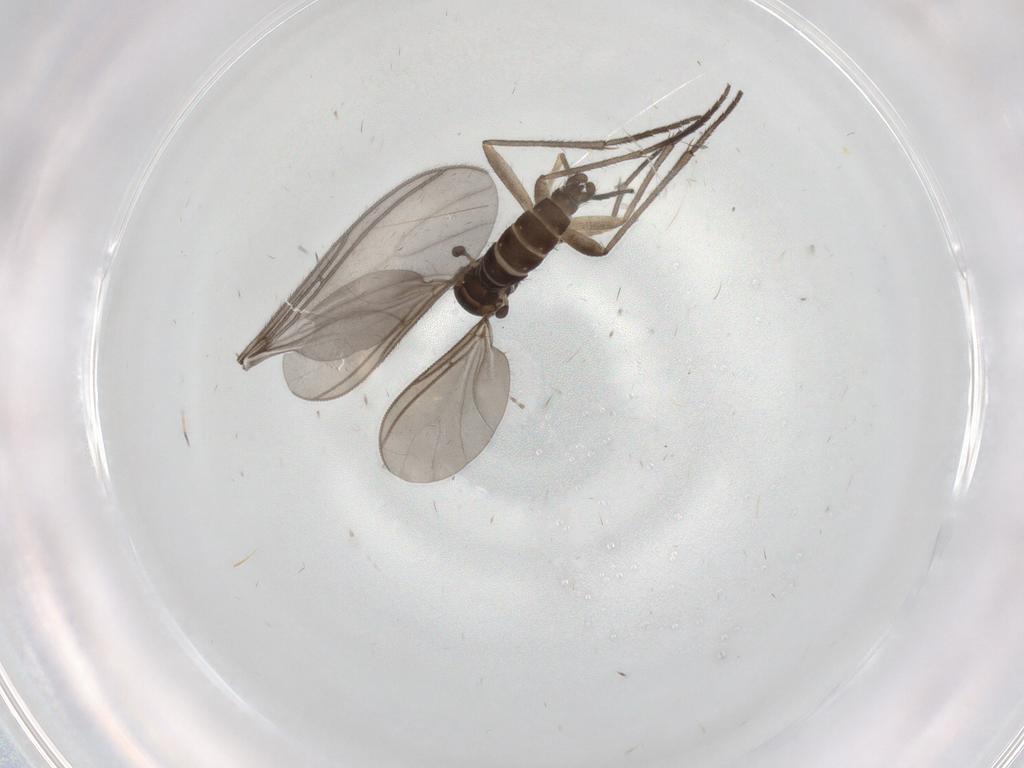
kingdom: Animalia
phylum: Arthropoda
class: Insecta
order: Diptera
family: Sciaridae
